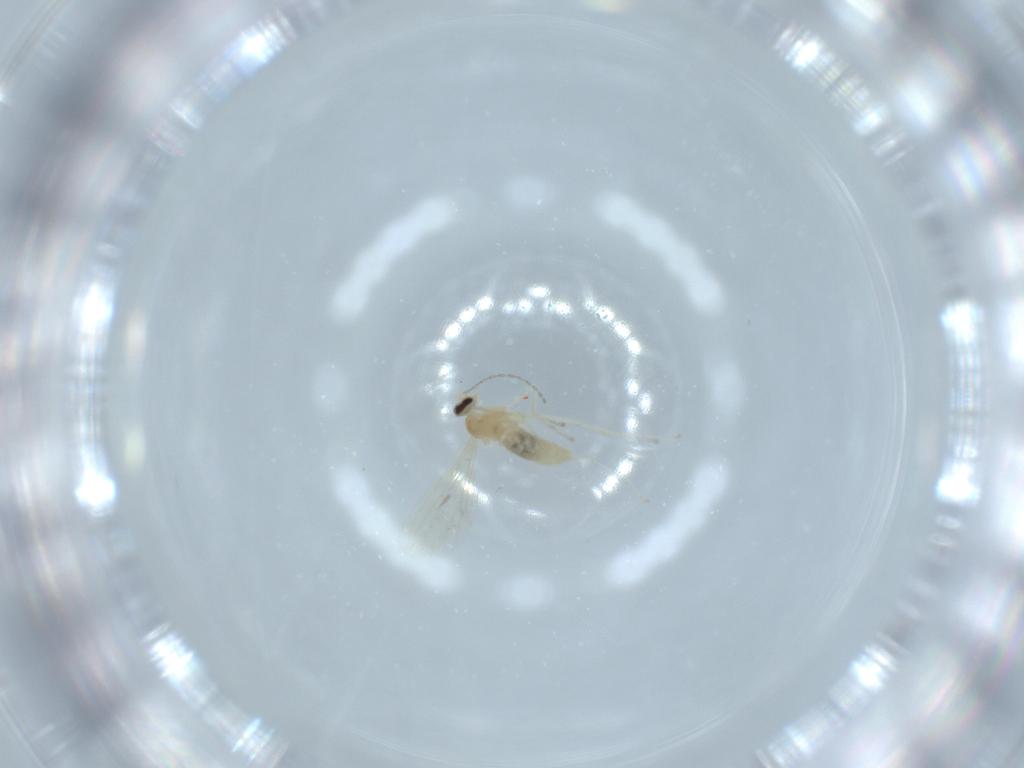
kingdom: Animalia
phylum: Arthropoda
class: Insecta
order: Diptera
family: Cecidomyiidae
